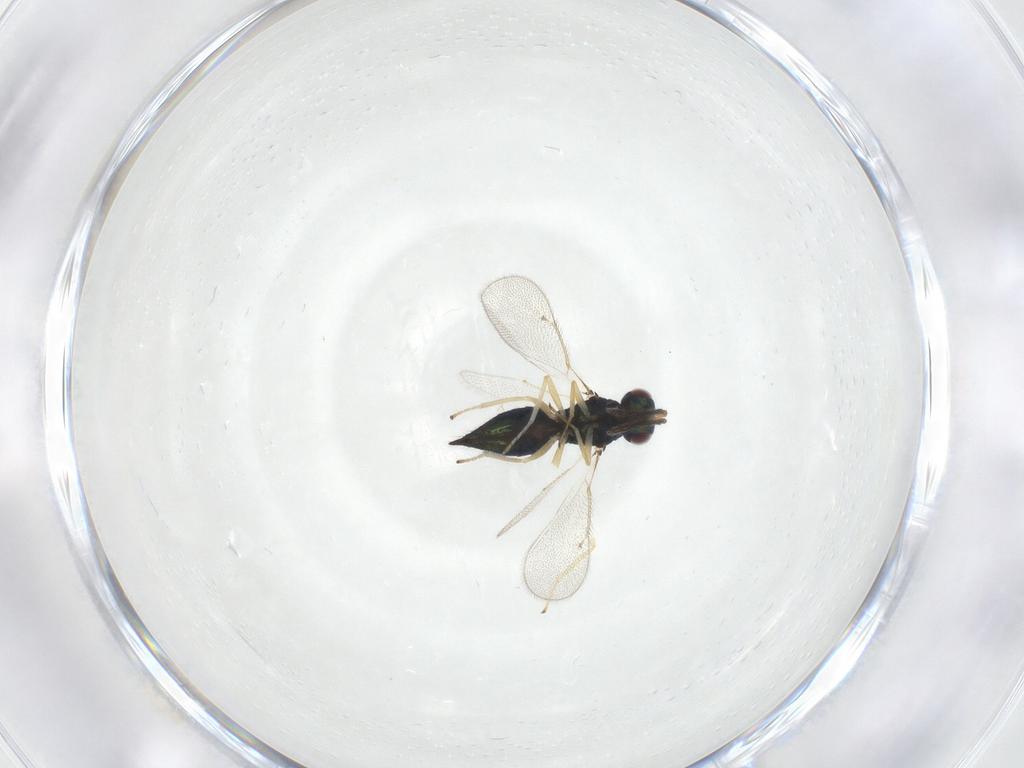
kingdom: Animalia
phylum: Arthropoda
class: Insecta
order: Hymenoptera
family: Eulophidae
